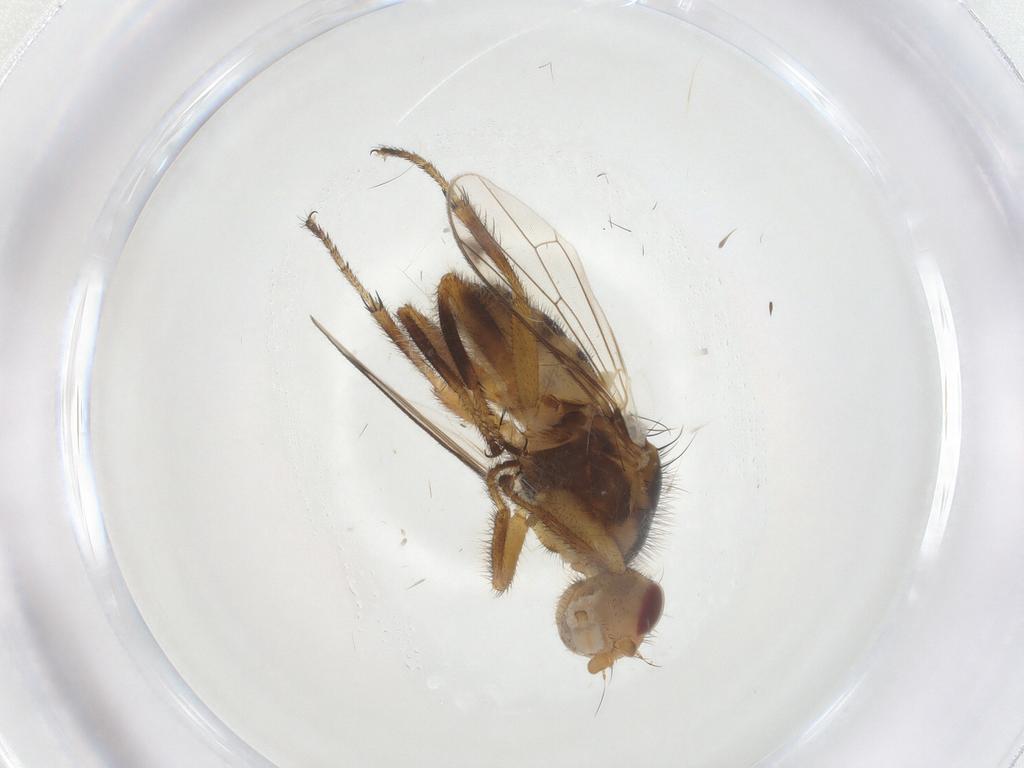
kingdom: Animalia
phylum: Arthropoda
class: Insecta
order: Diptera
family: Richardiidae
